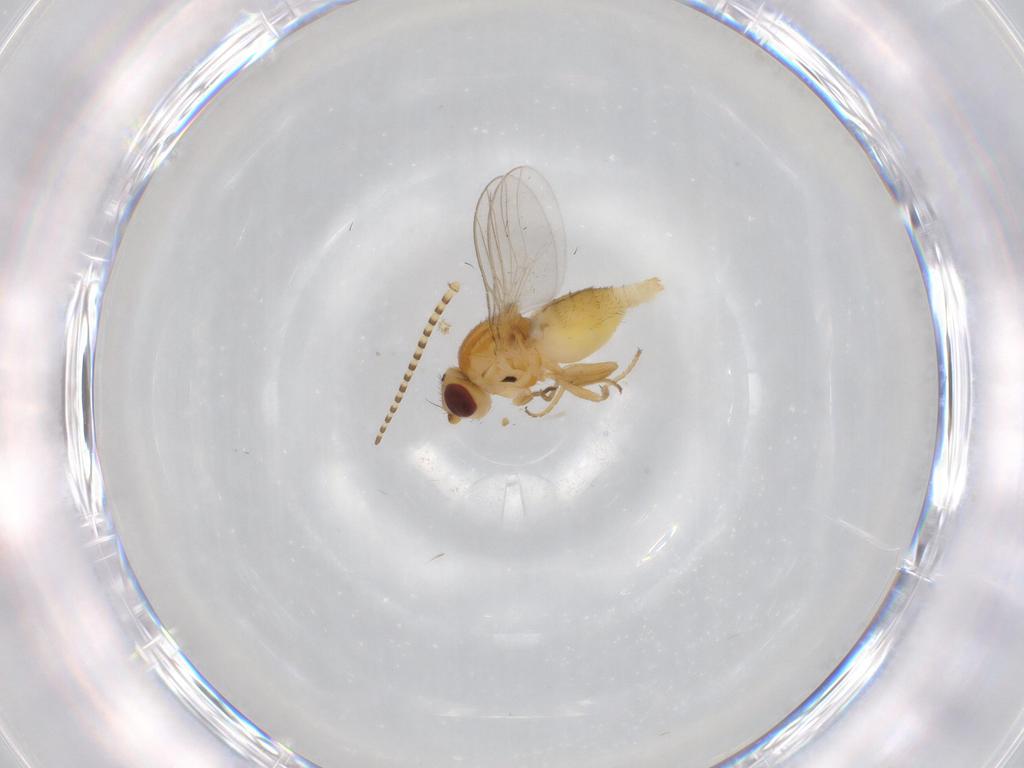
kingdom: Animalia
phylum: Arthropoda
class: Insecta
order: Diptera
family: Chloropidae
